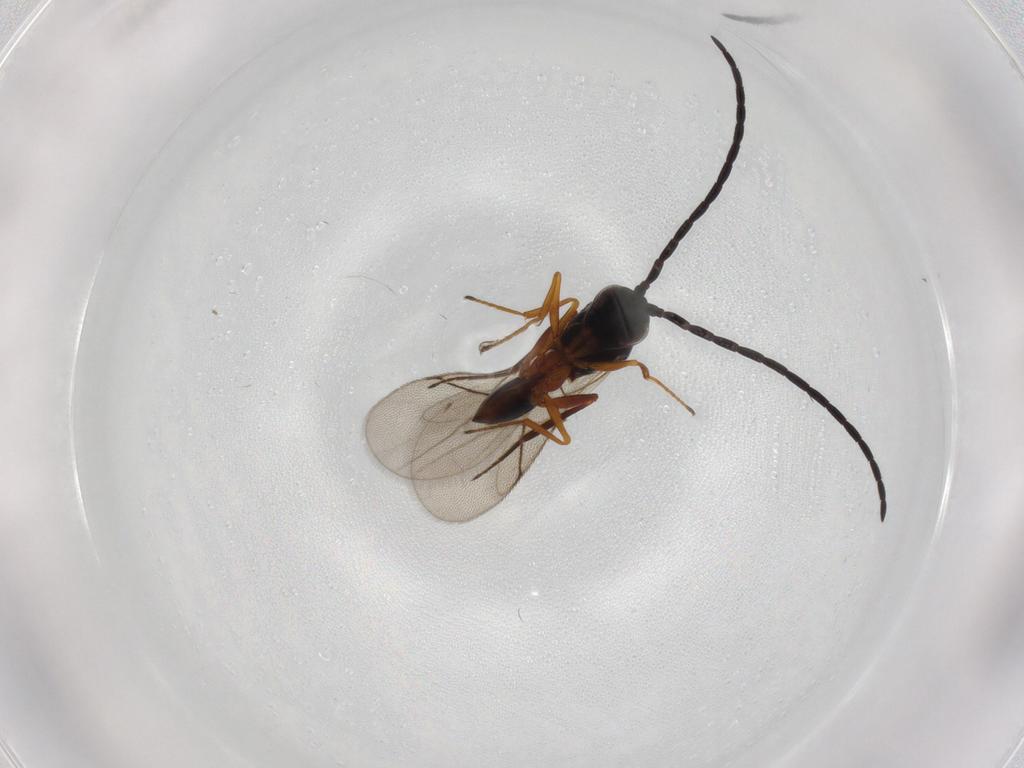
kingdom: Animalia
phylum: Arthropoda
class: Insecta
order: Hymenoptera
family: Figitidae
